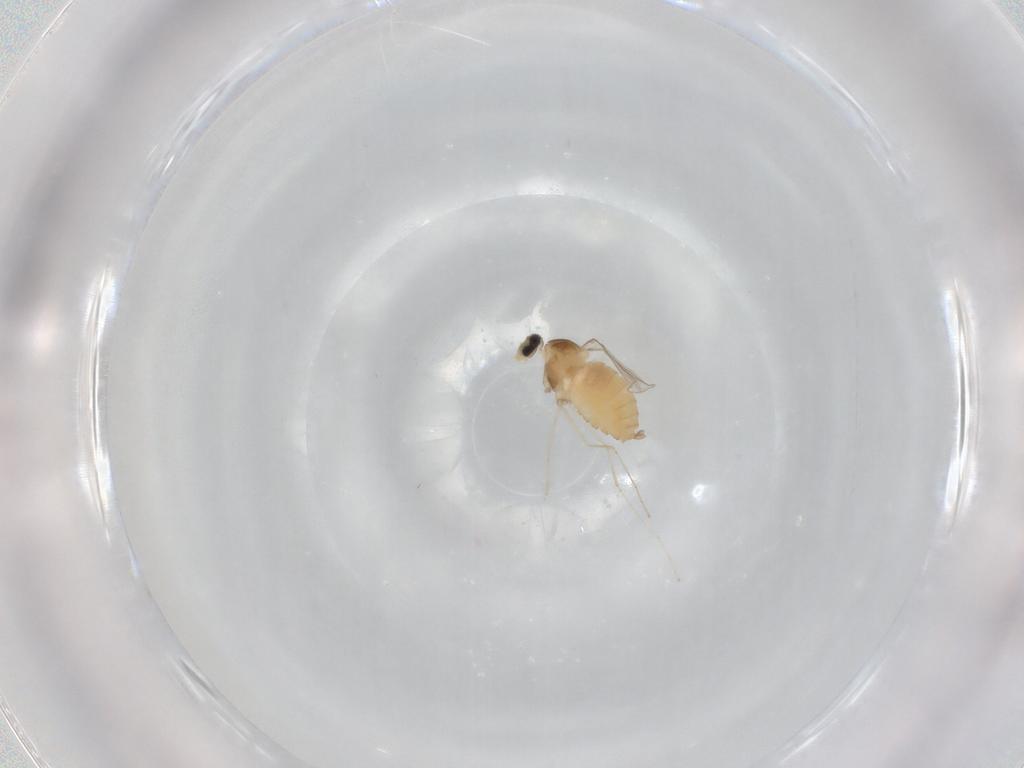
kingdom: Animalia
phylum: Arthropoda
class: Insecta
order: Diptera
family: Cecidomyiidae
